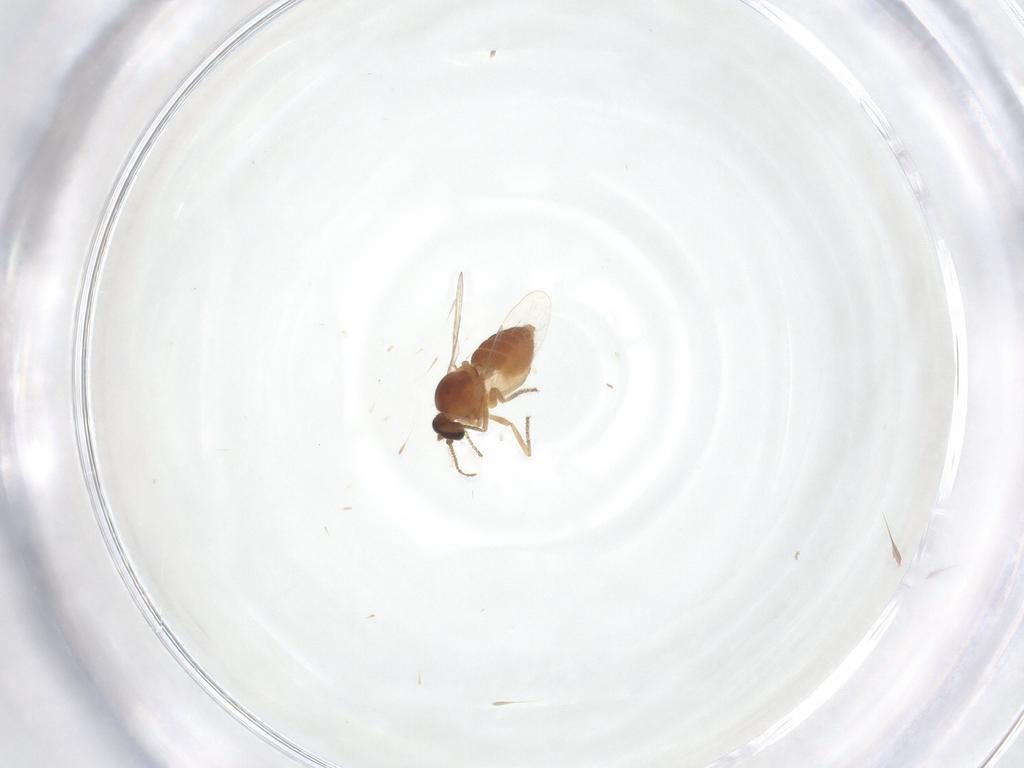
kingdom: Animalia
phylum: Arthropoda
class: Insecta
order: Diptera
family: Ceratopogonidae
